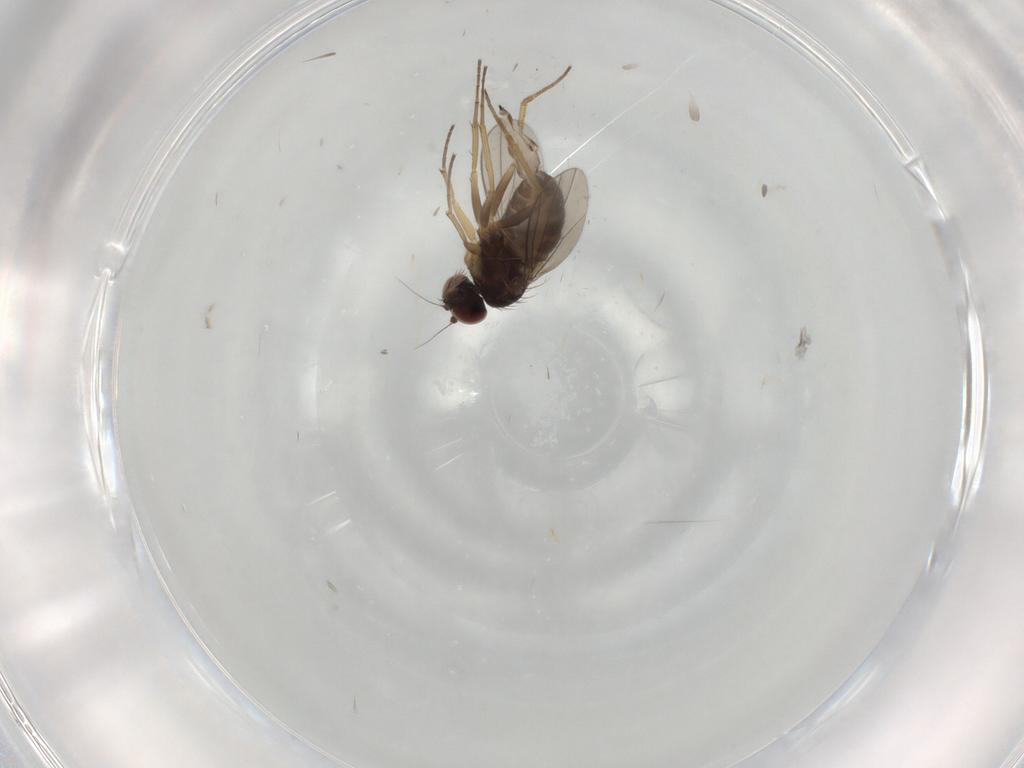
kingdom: Animalia
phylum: Arthropoda
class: Insecta
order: Diptera
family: Dolichopodidae
